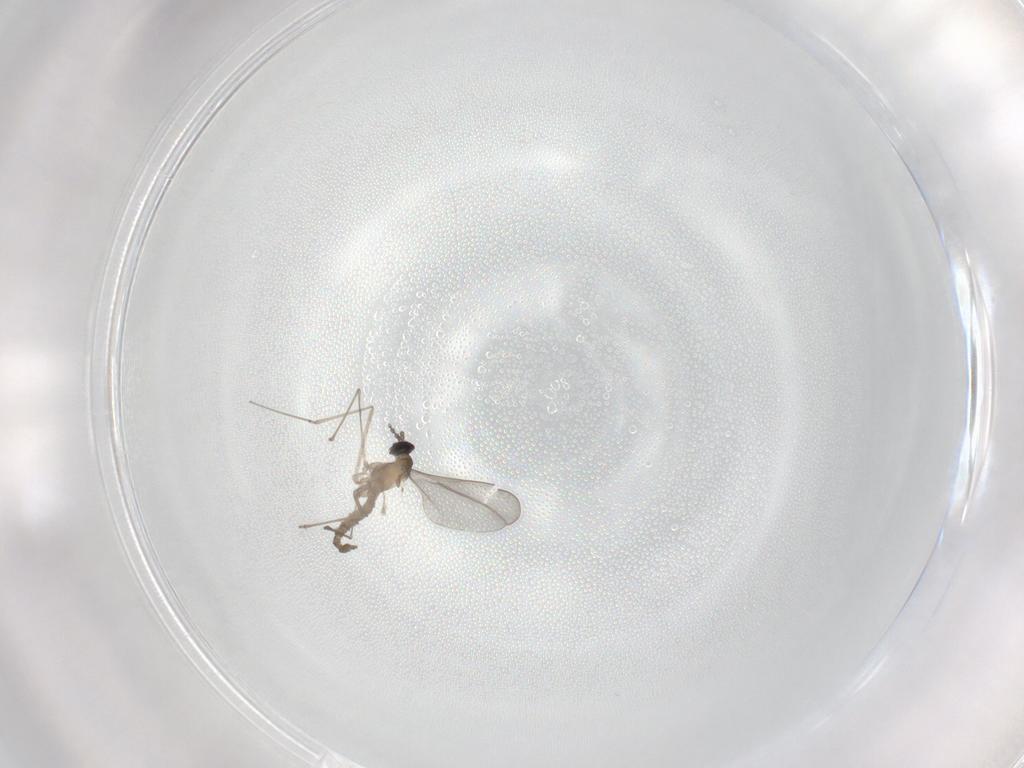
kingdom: Animalia
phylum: Arthropoda
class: Insecta
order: Diptera
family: Cecidomyiidae
